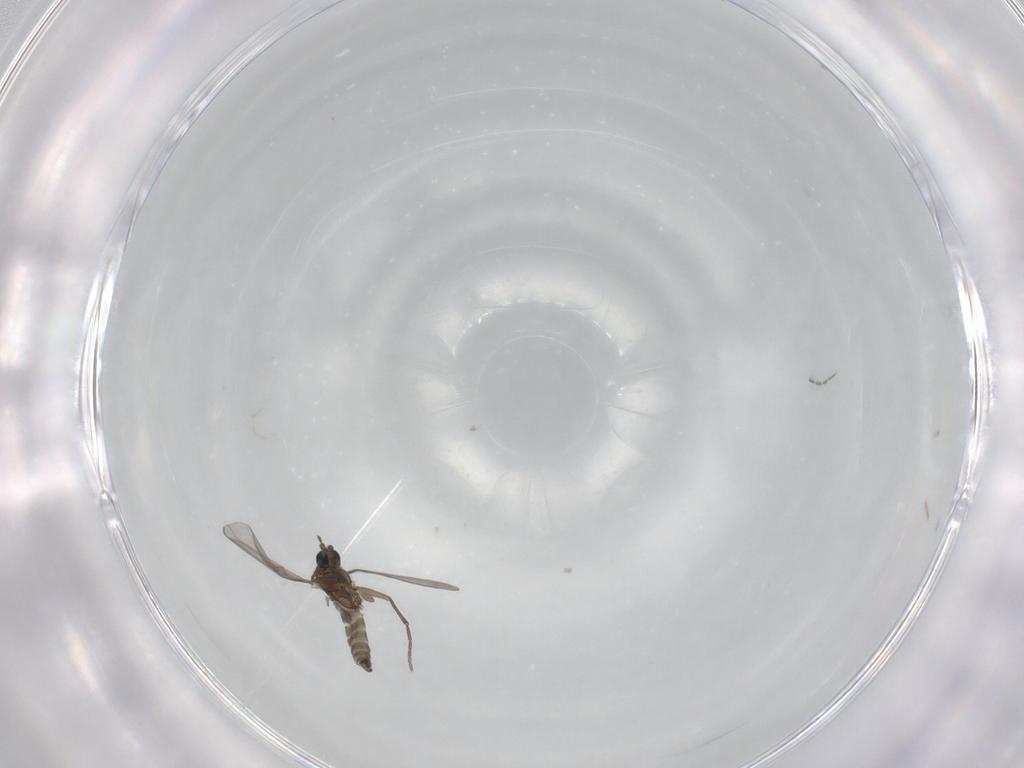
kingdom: Animalia
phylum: Arthropoda
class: Insecta
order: Diptera
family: Sciaridae
